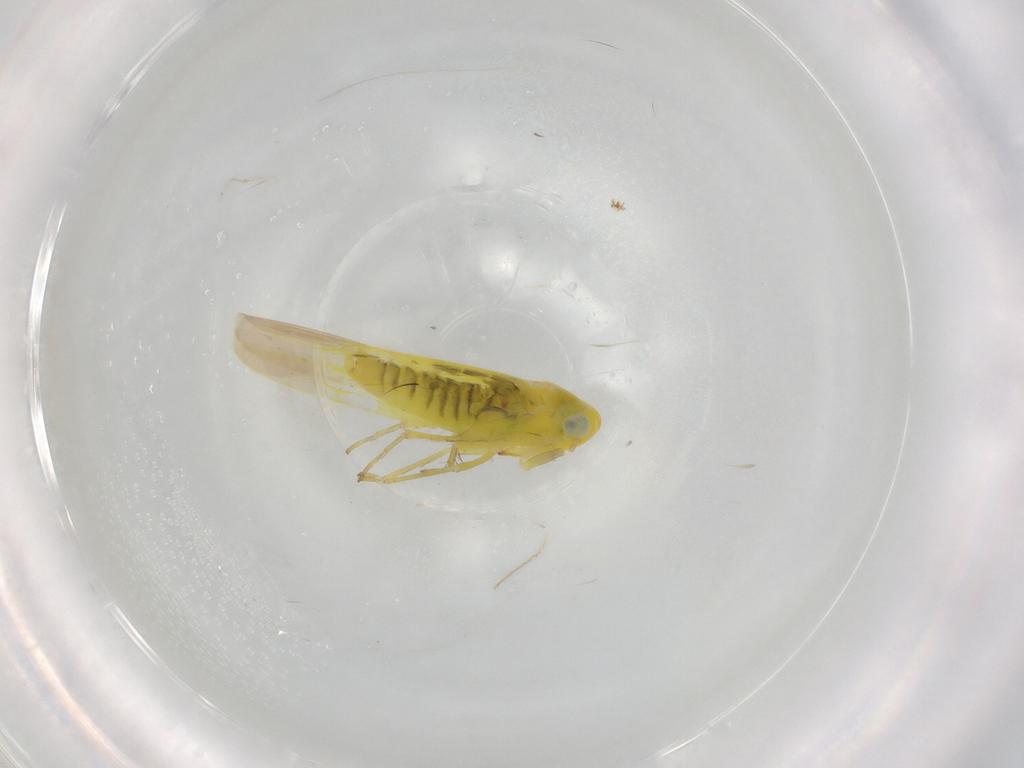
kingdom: Animalia
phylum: Arthropoda
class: Insecta
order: Hemiptera
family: Cicadellidae
